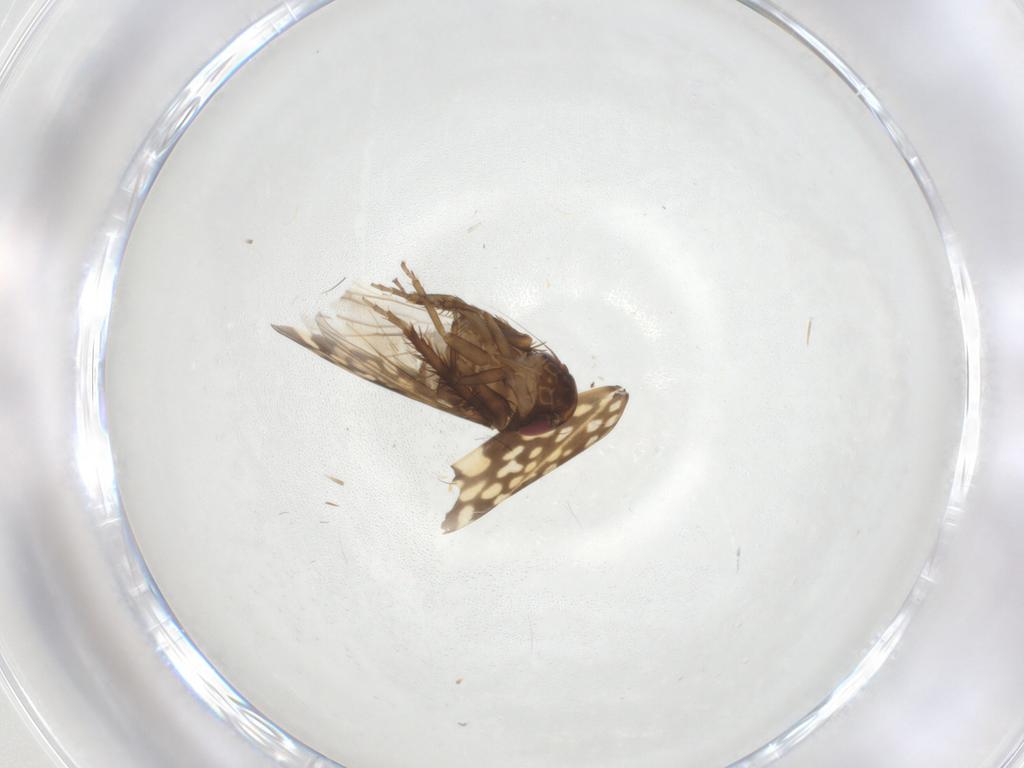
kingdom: Animalia
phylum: Arthropoda
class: Insecta
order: Hemiptera
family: Cicadellidae
